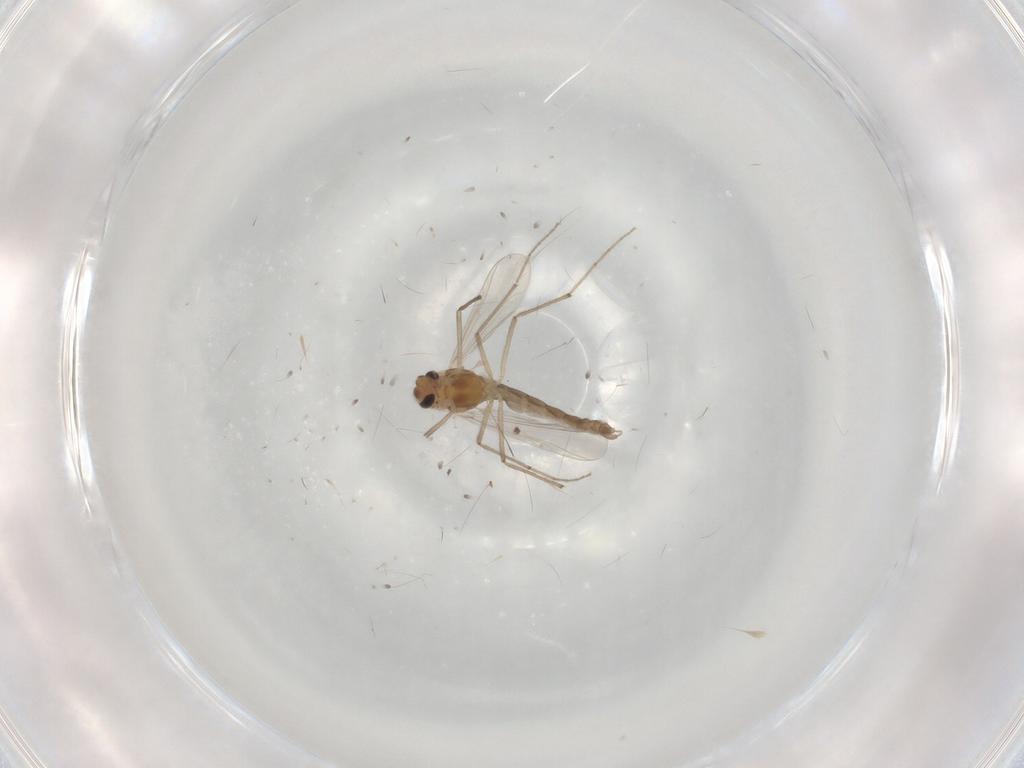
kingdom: Animalia
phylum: Arthropoda
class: Insecta
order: Diptera
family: Chironomidae
